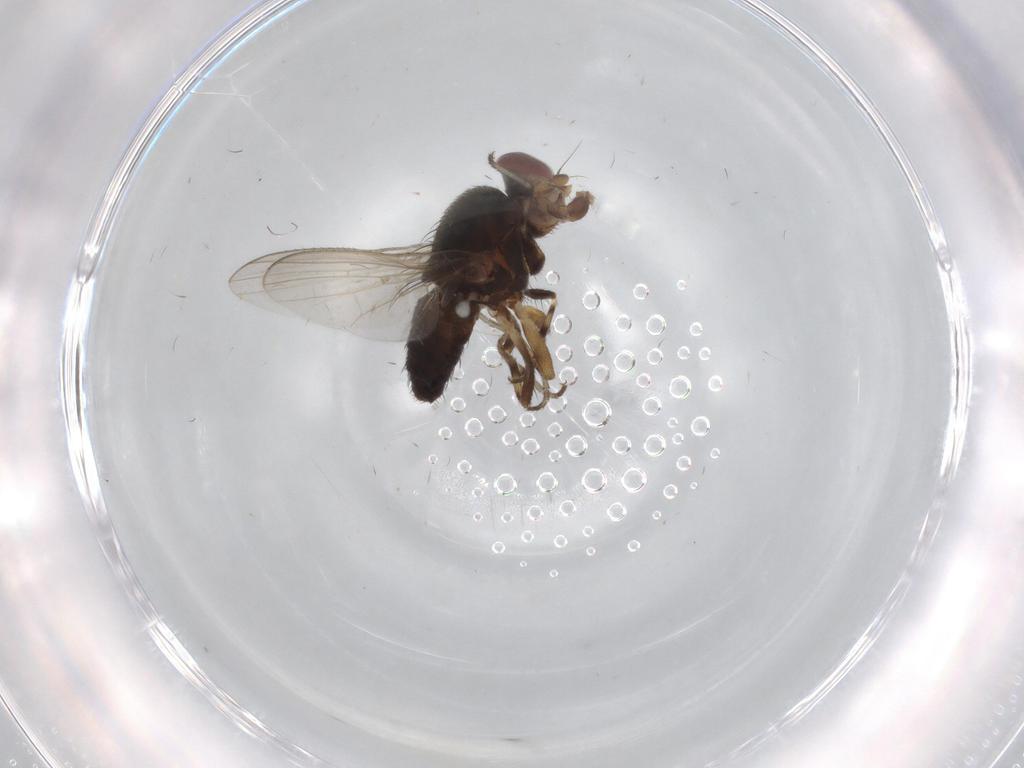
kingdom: Animalia
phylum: Arthropoda
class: Insecta
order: Diptera
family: Heleomyzidae
